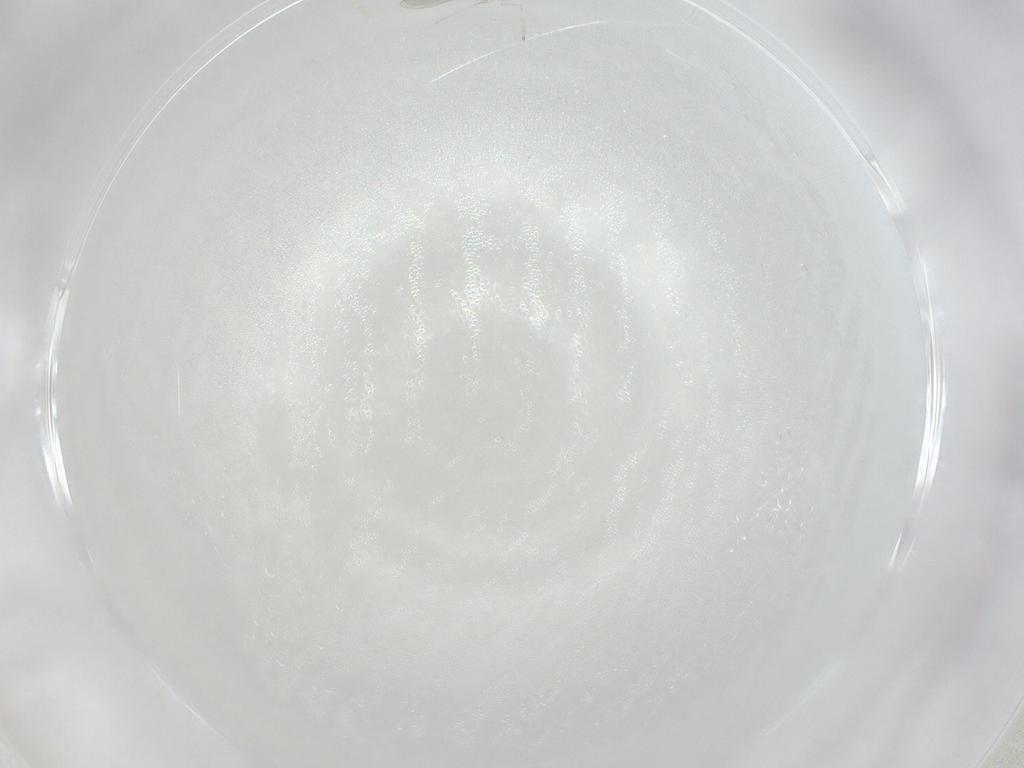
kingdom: Animalia
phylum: Arthropoda
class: Insecta
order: Diptera
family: Cecidomyiidae
